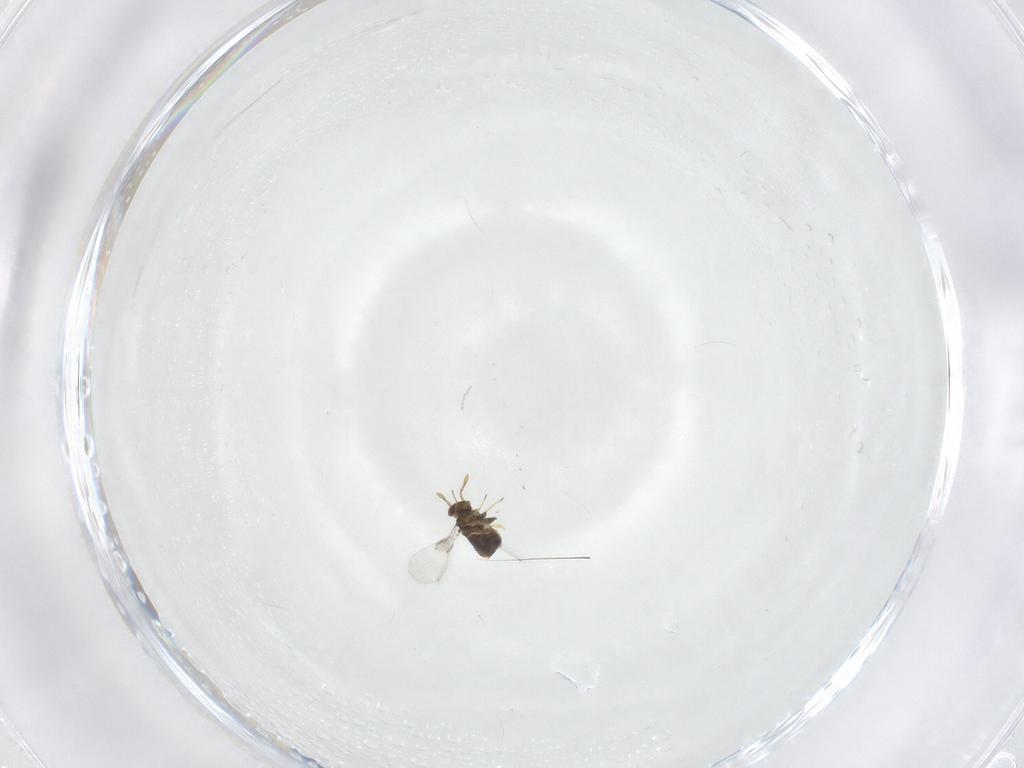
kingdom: Animalia
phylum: Arthropoda
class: Insecta
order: Hymenoptera
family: Trichogrammatidae
